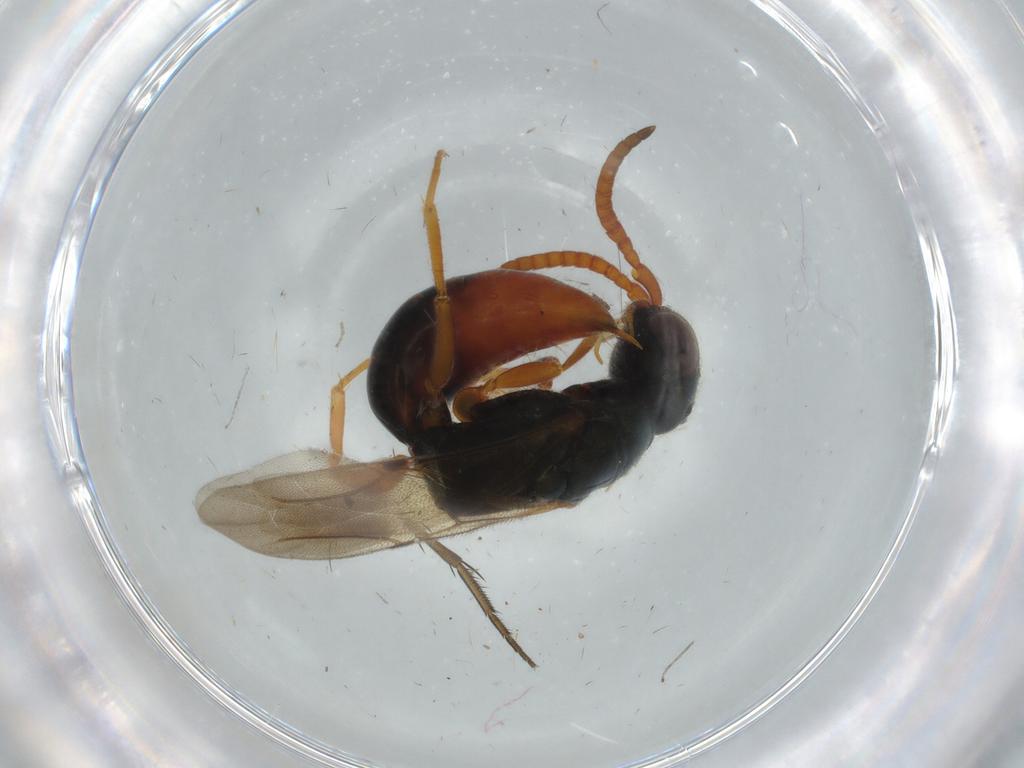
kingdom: Animalia
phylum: Arthropoda
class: Insecta
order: Hymenoptera
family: Bethylidae
